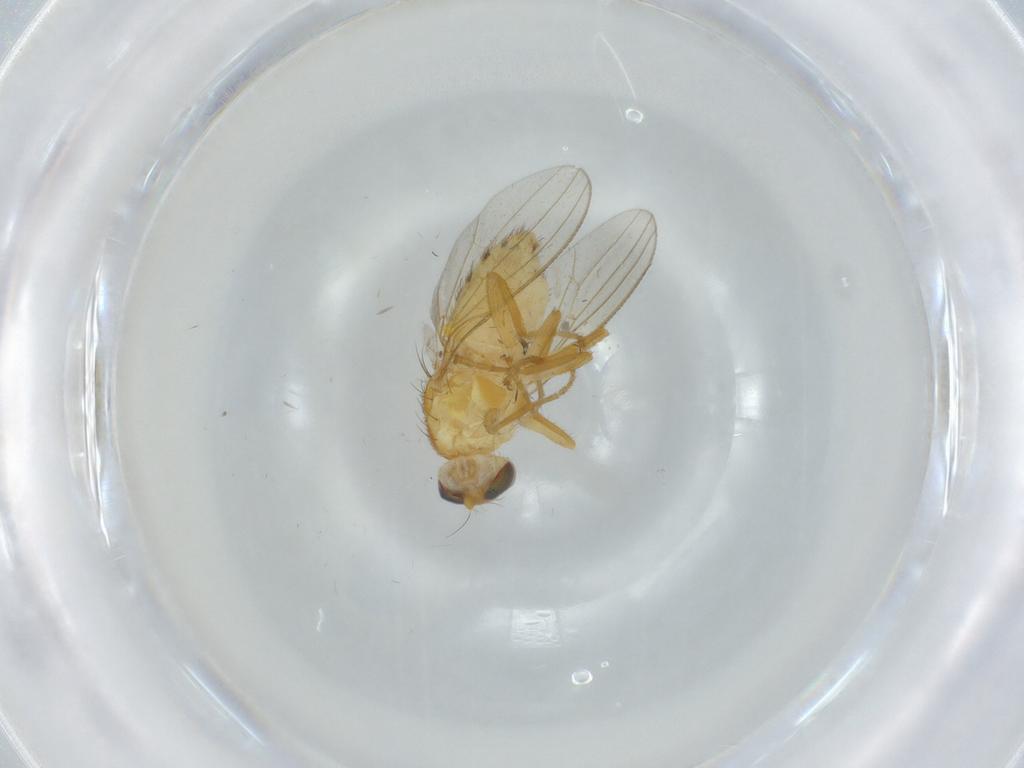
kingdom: Animalia
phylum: Arthropoda
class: Insecta
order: Diptera
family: Chyromyidae
